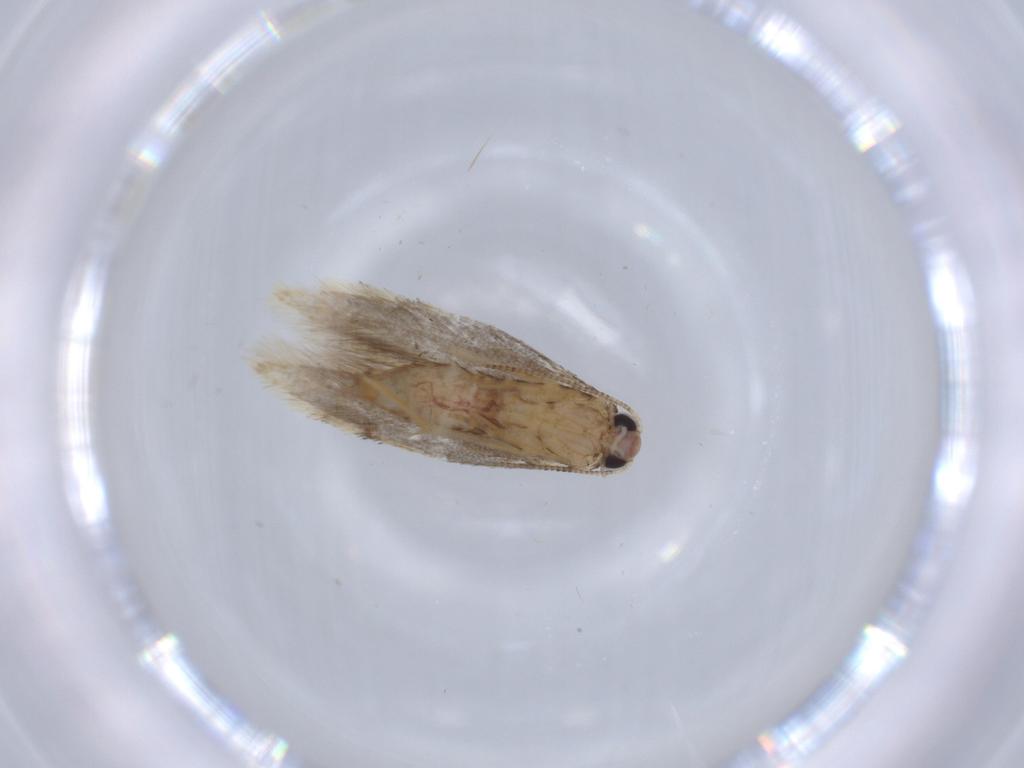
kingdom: Animalia
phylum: Arthropoda
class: Insecta
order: Lepidoptera
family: Tineidae
